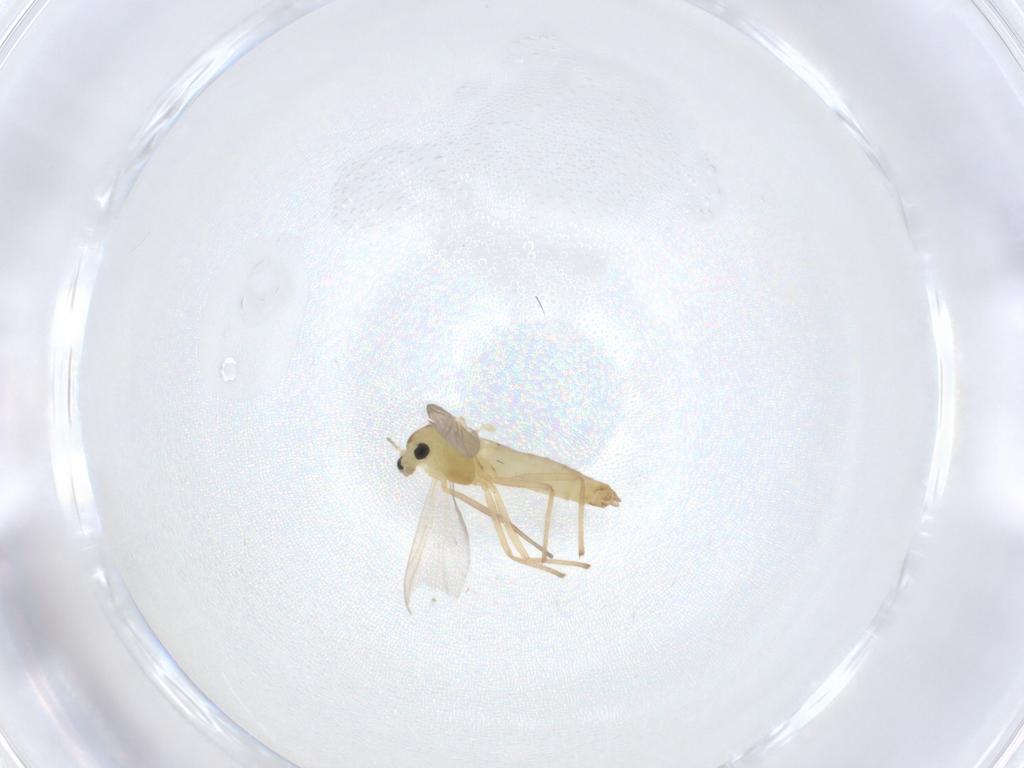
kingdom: Animalia
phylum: Arthropoda
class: Insecta
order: Diptera
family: Chironomidae
